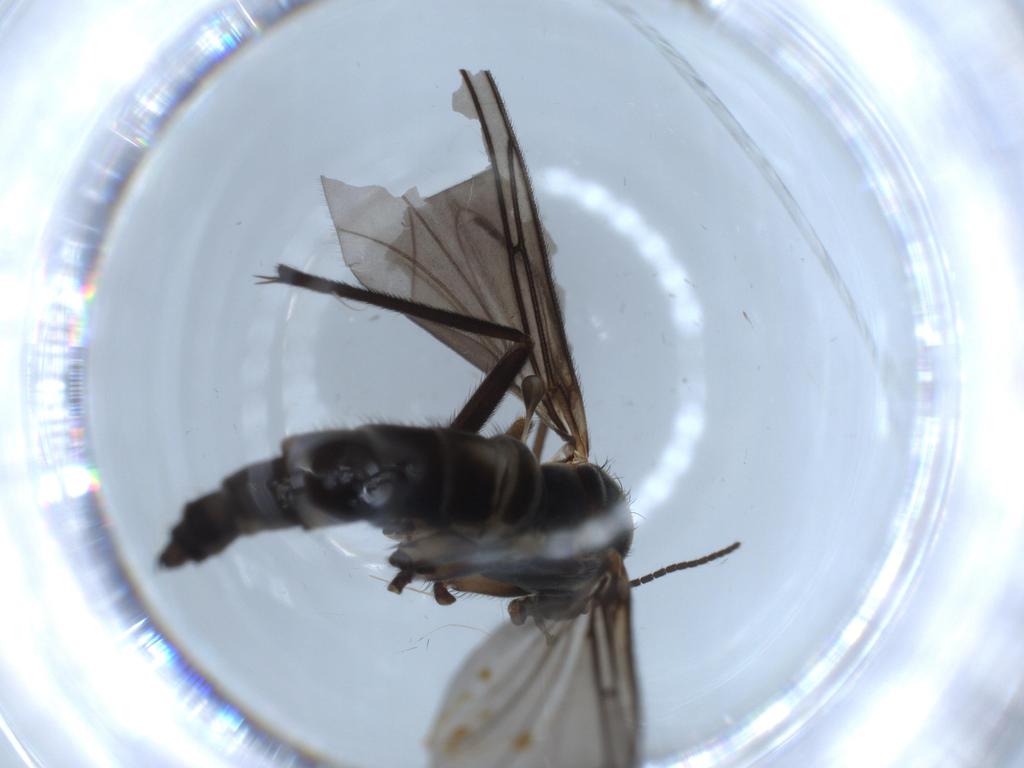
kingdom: Animalia
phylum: Arthropoda
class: Insecta
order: Diptera
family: Sciaridae
